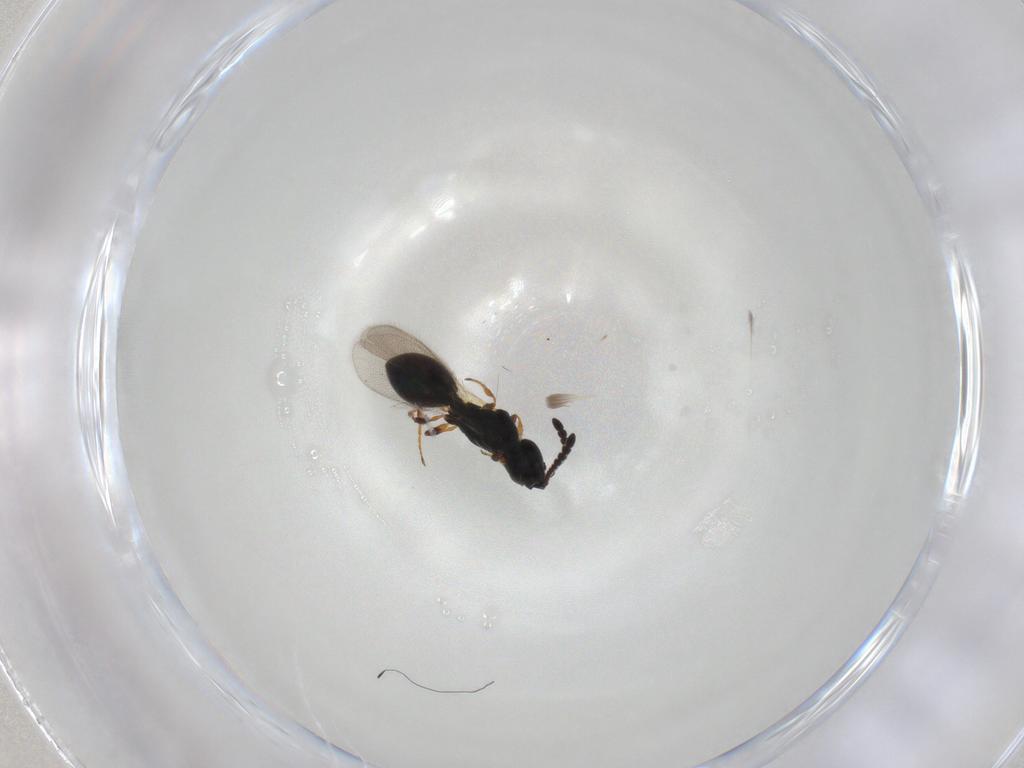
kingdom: Animalia
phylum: Arthropoda
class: Insecta
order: Hymenoptera
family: Diapriidae
